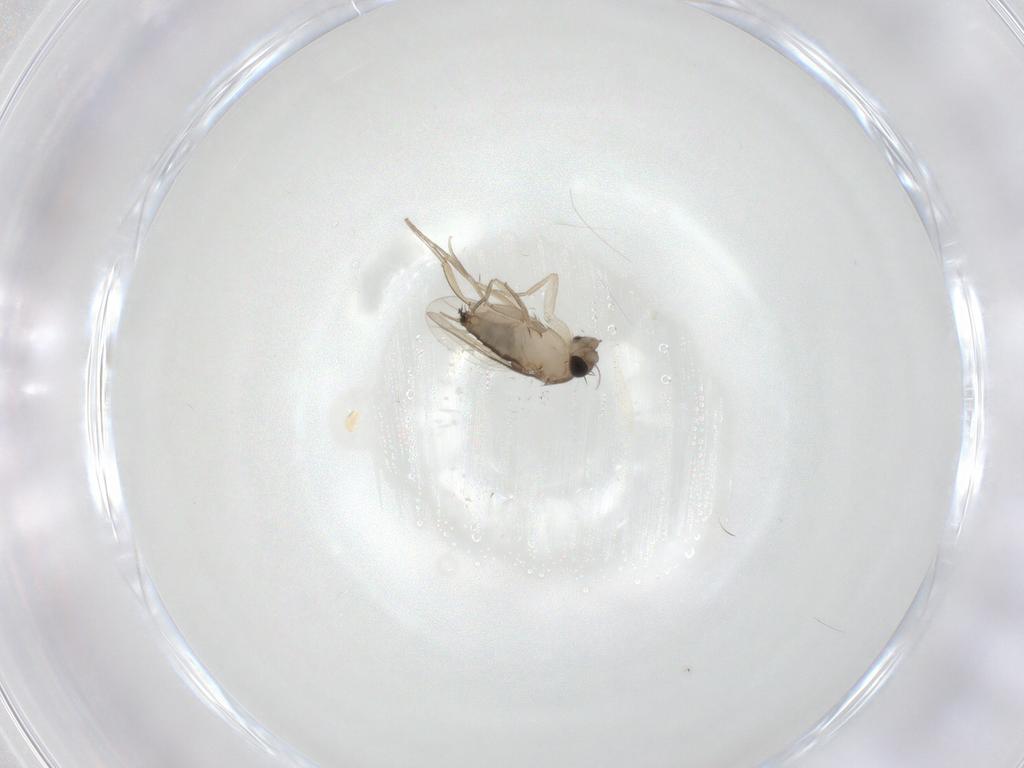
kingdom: Animalia
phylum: Arthropoda
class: Insecta
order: Diptera
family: Phoridae
